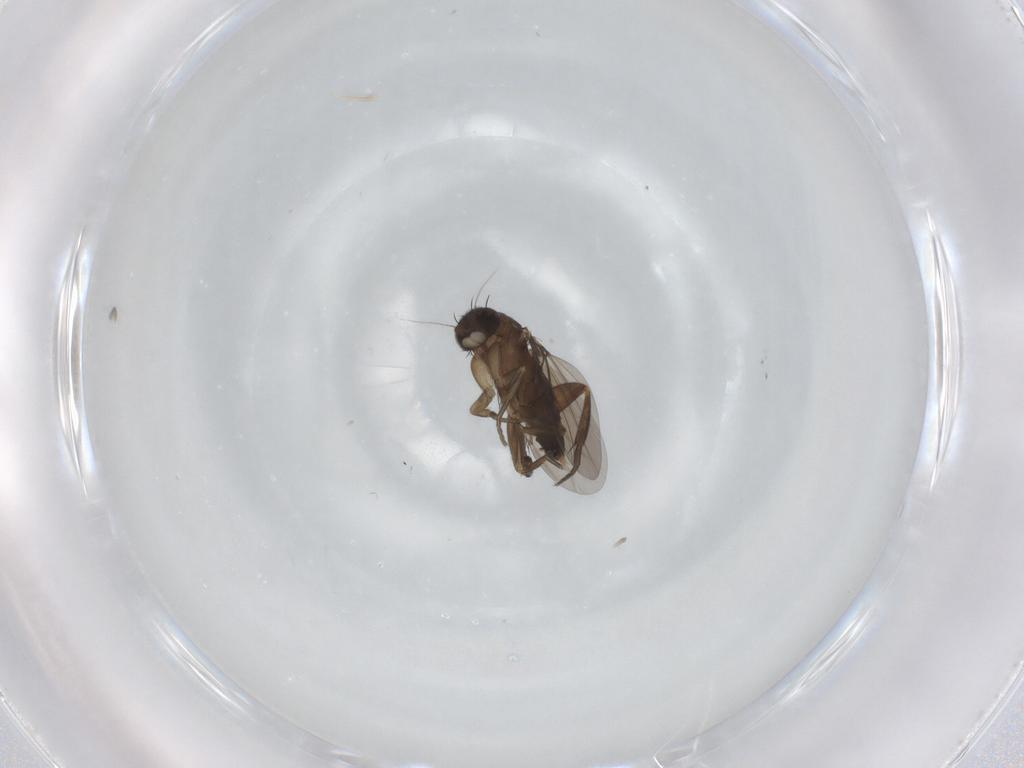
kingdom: Animalia
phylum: Arthropoda
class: Insecta
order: Diptera
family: Phoridae
